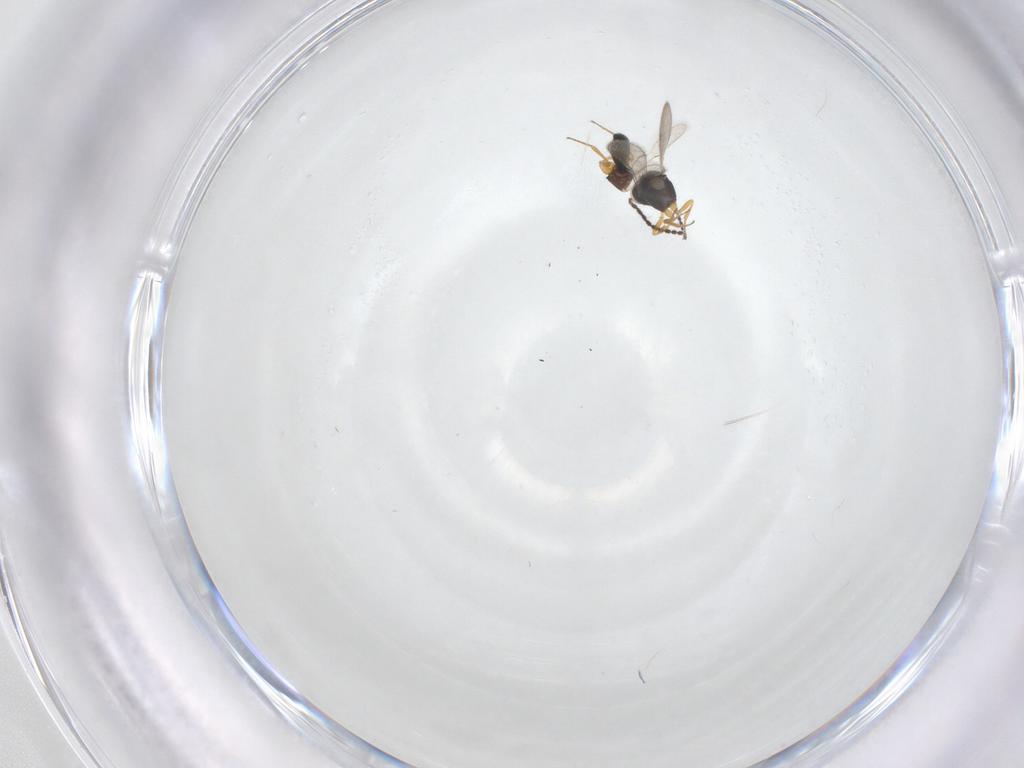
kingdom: Animalia
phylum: Arthropoda
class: Insecta
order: Hymenoptera
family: Scelionidae
